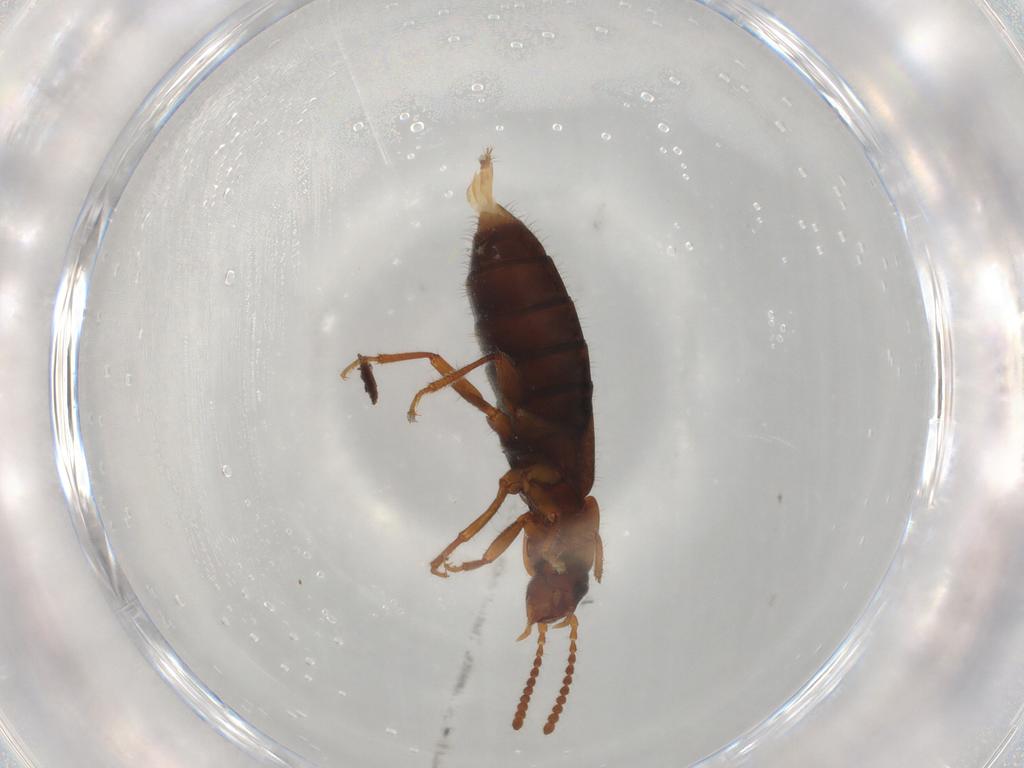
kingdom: Animalia
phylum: Arthropoda
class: Insecta
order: Coleoptera
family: Staphylinidae
